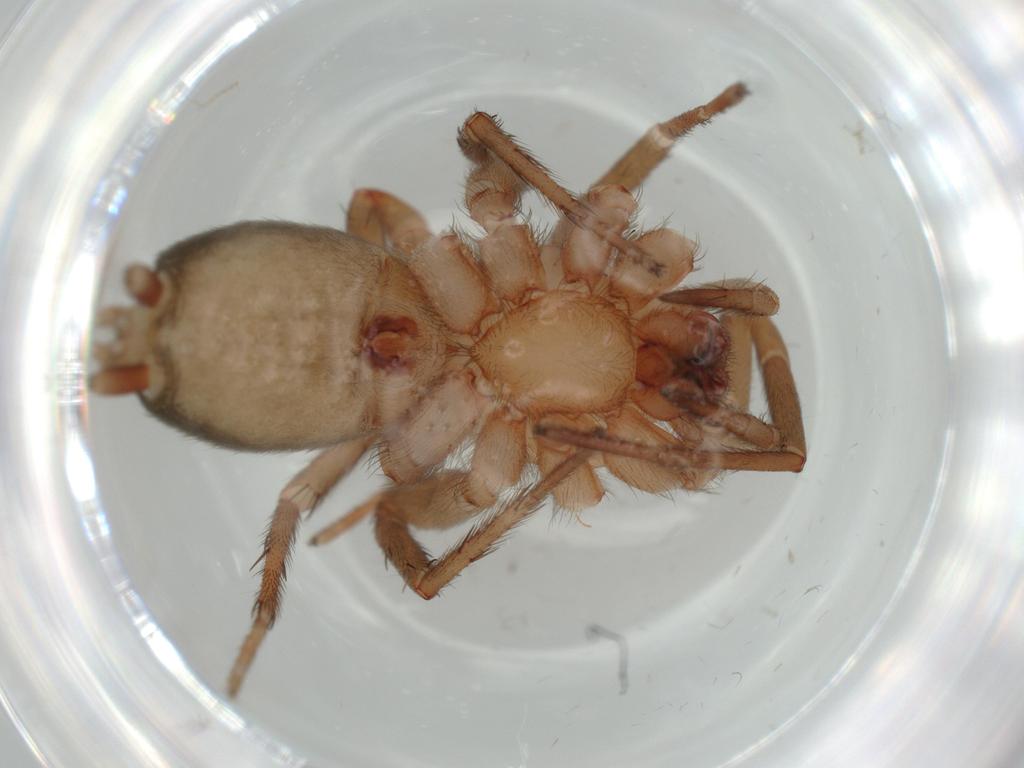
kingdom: Animalia
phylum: Arthropoda
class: Arachnida
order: Araneae
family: Gnaphosidae
